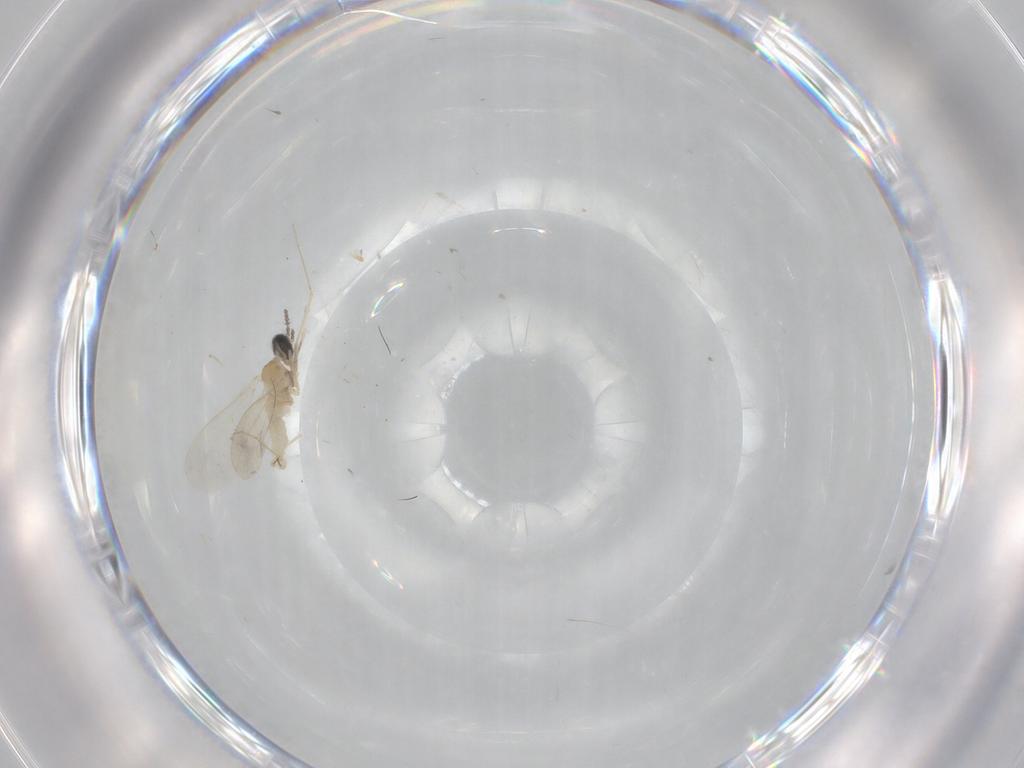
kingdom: Animalia
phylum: Arthropoda
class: Insecta
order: Diptera
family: Cecidomyiidae
